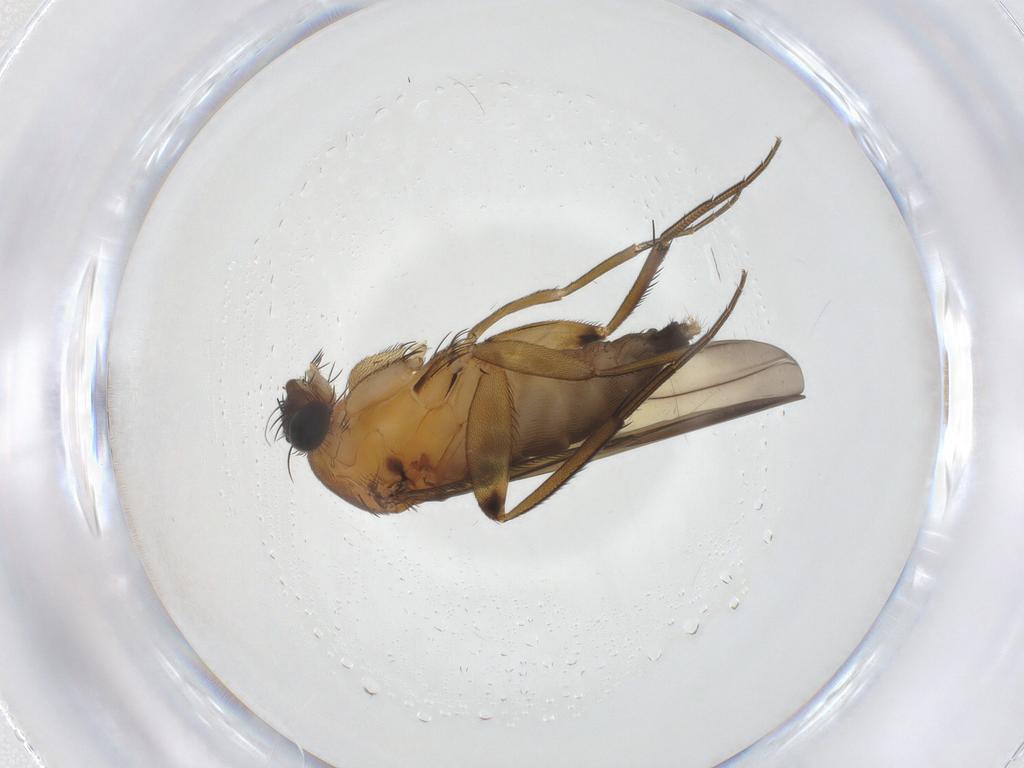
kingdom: Animalia
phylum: Arthropoda
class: Insecta
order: Diptera
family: Phoridae
